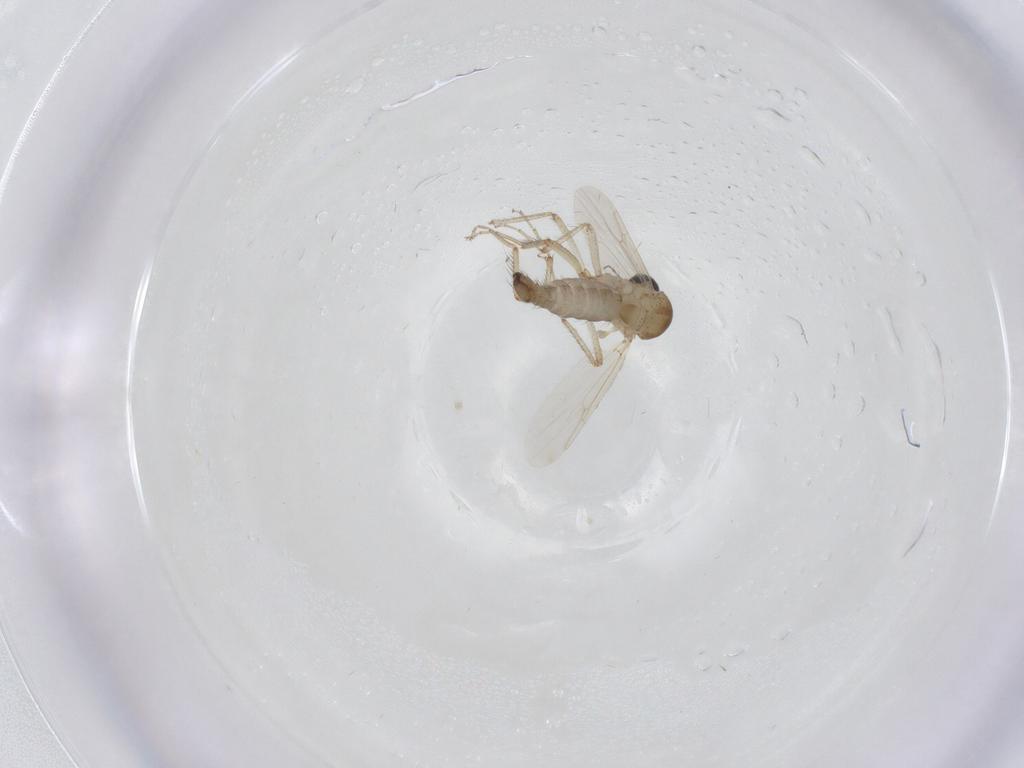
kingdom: Animalia
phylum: Arthropoda
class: Insecta
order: Diptera
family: Ceratopogonidae
